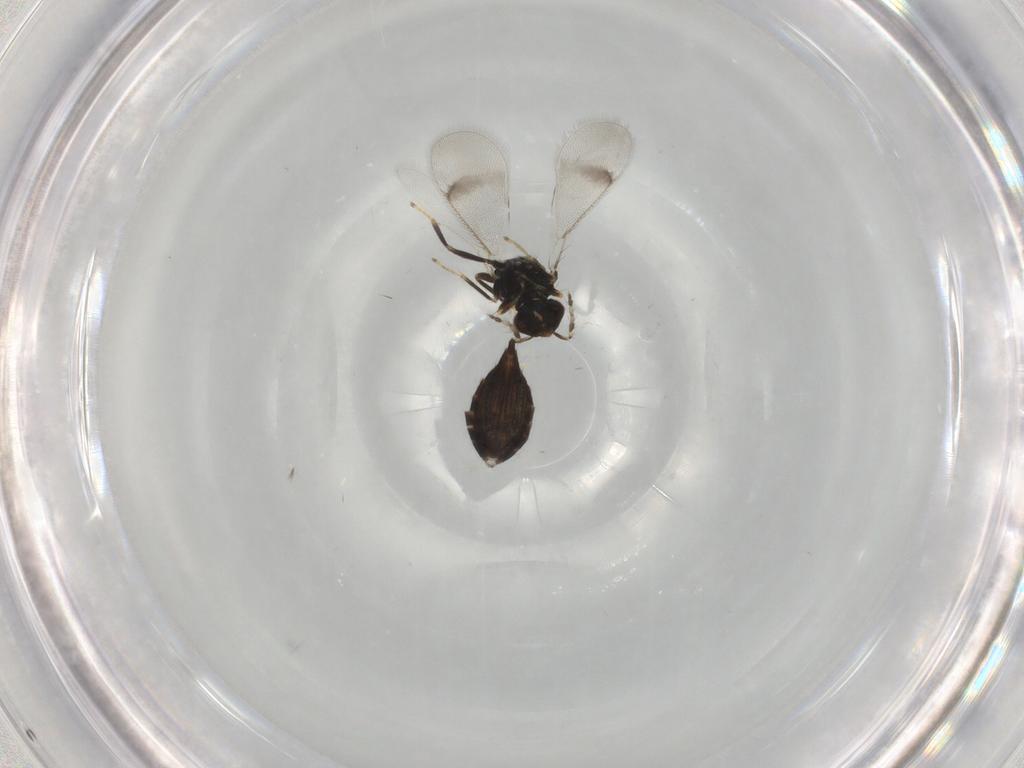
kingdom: Animalia
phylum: Arthropoda
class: Insecta
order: Hymenoptera
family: Eulophidae
